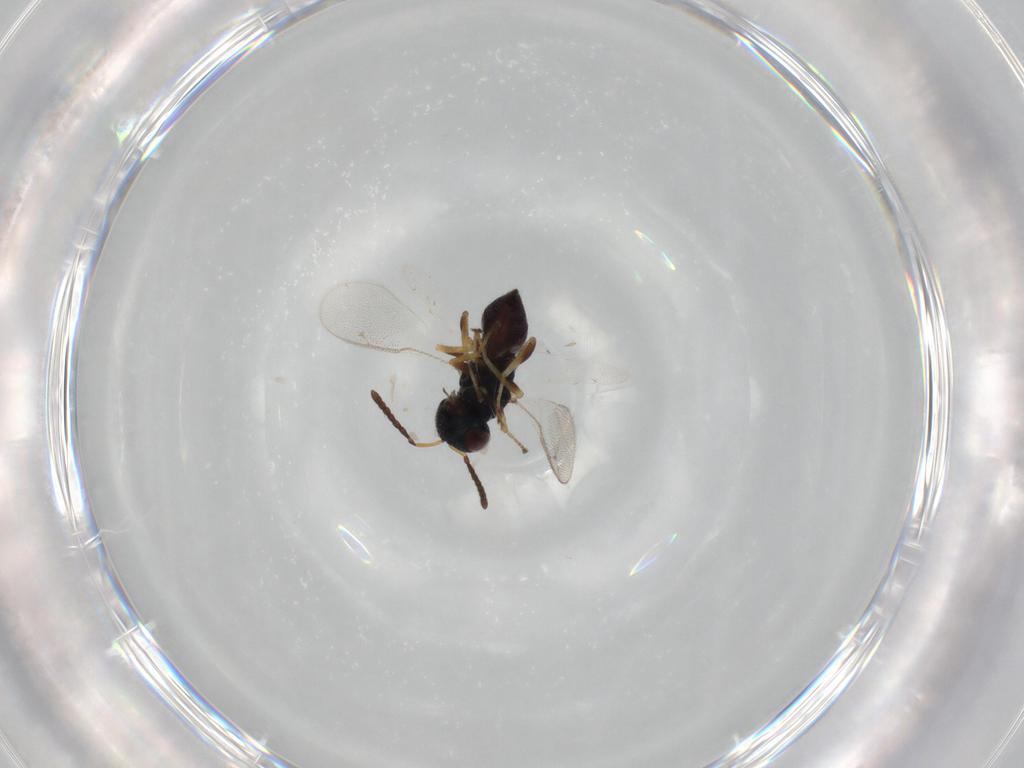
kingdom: Animalia
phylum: Arthropoda
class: Insecta
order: Hymenoptera
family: Pteromalidae
